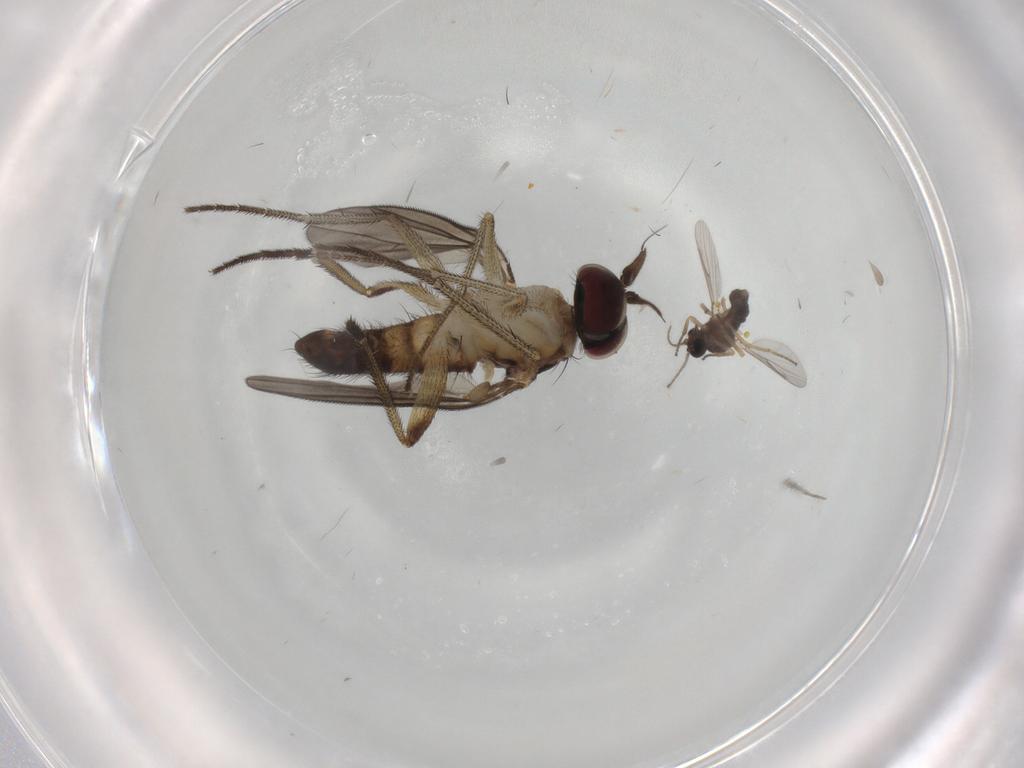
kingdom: Animalia
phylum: Arthropoda
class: Insecta
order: Diptera
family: Dolichopodidae
